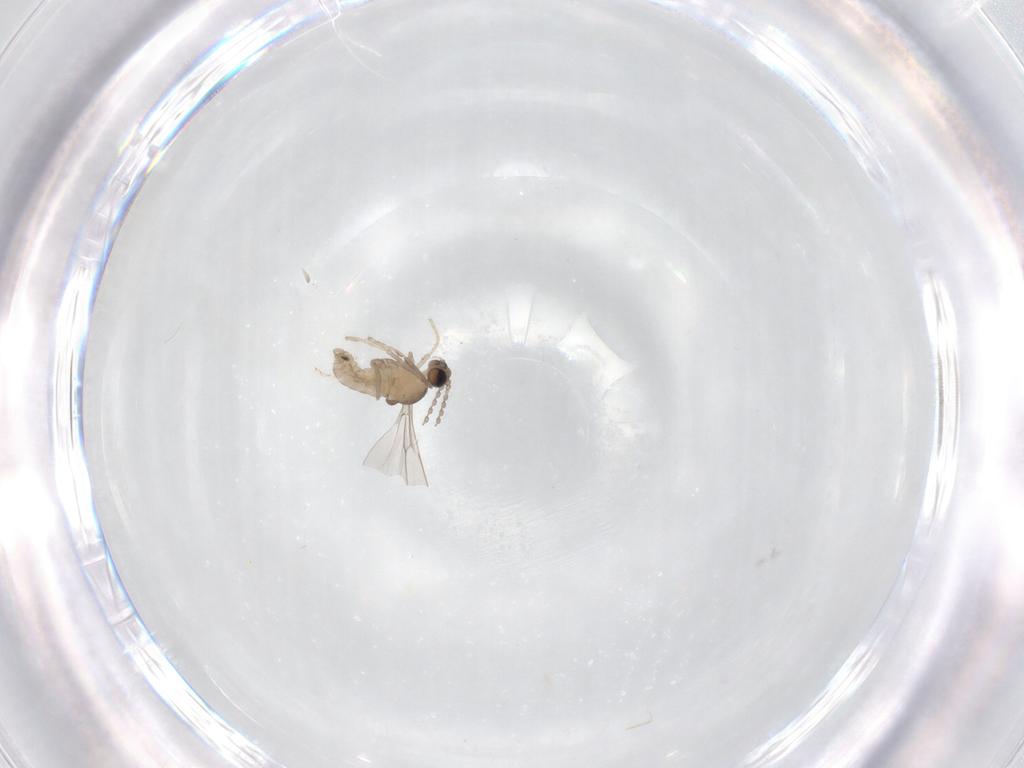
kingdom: Animalia
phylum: Arthropoda
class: Insecta
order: Diptera
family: Cecidomyiidae
